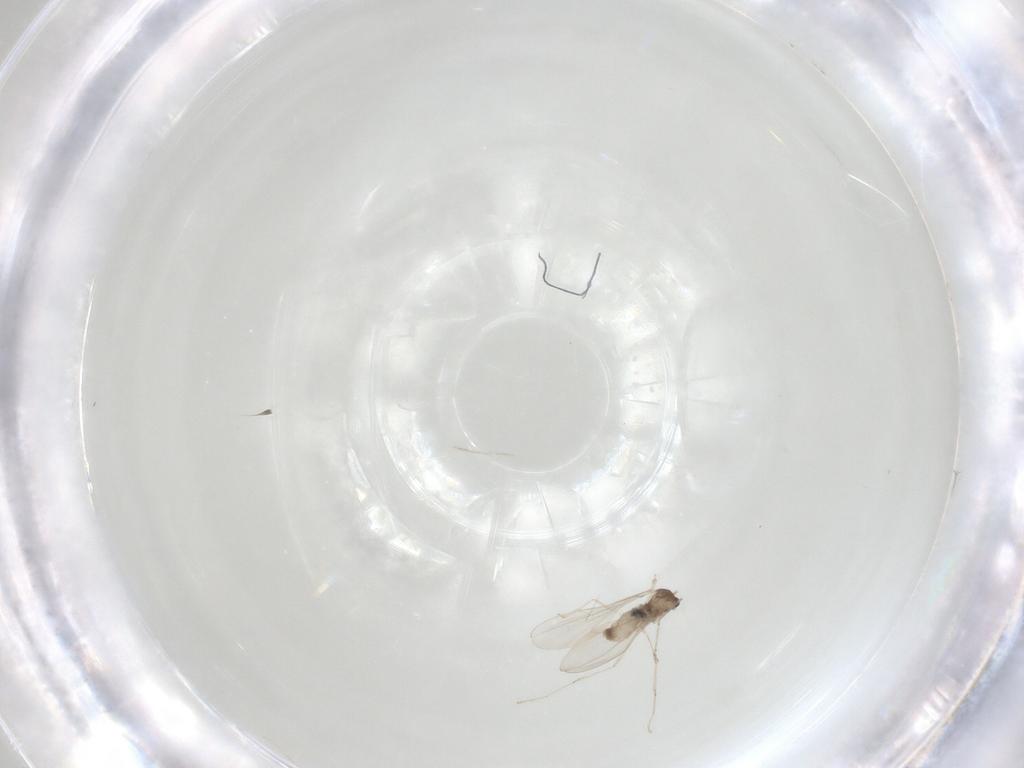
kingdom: Animalia
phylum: Arthropoda
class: Insecta
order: Diptera
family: Cecidomyiidae
